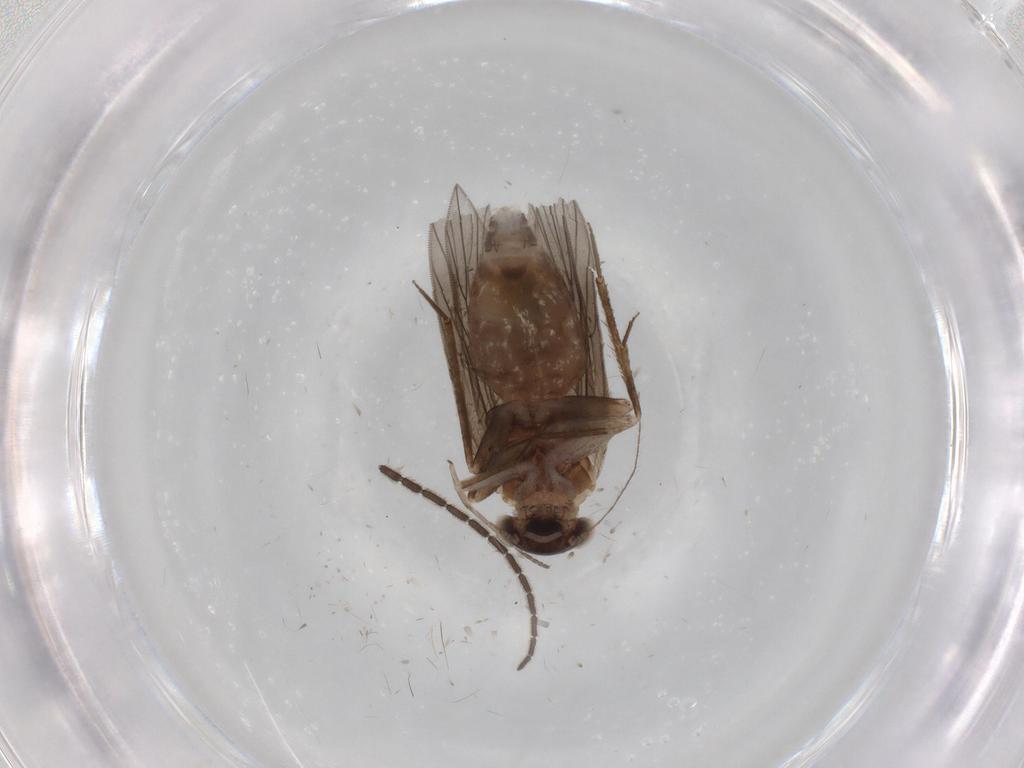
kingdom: Animalia
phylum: Arthropoda
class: Insecta
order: Psocodea
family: Lepidopsocidae
